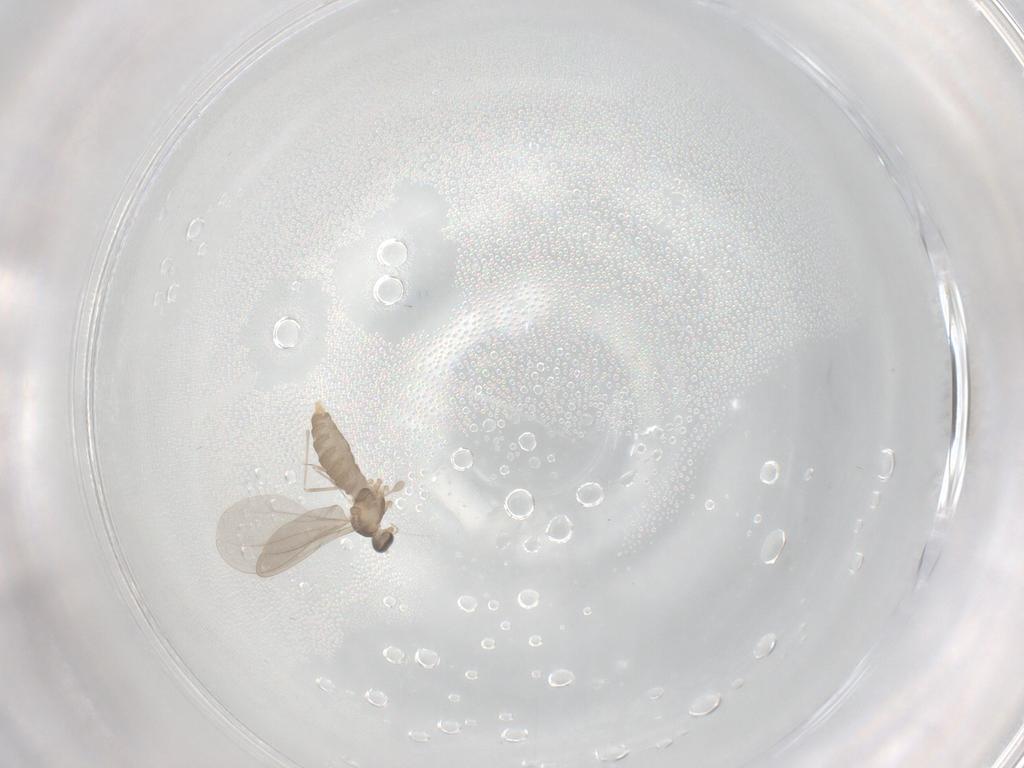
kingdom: Animalia
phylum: Arthropoda
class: Insecta
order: Diptera
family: Cecidomyiidae
